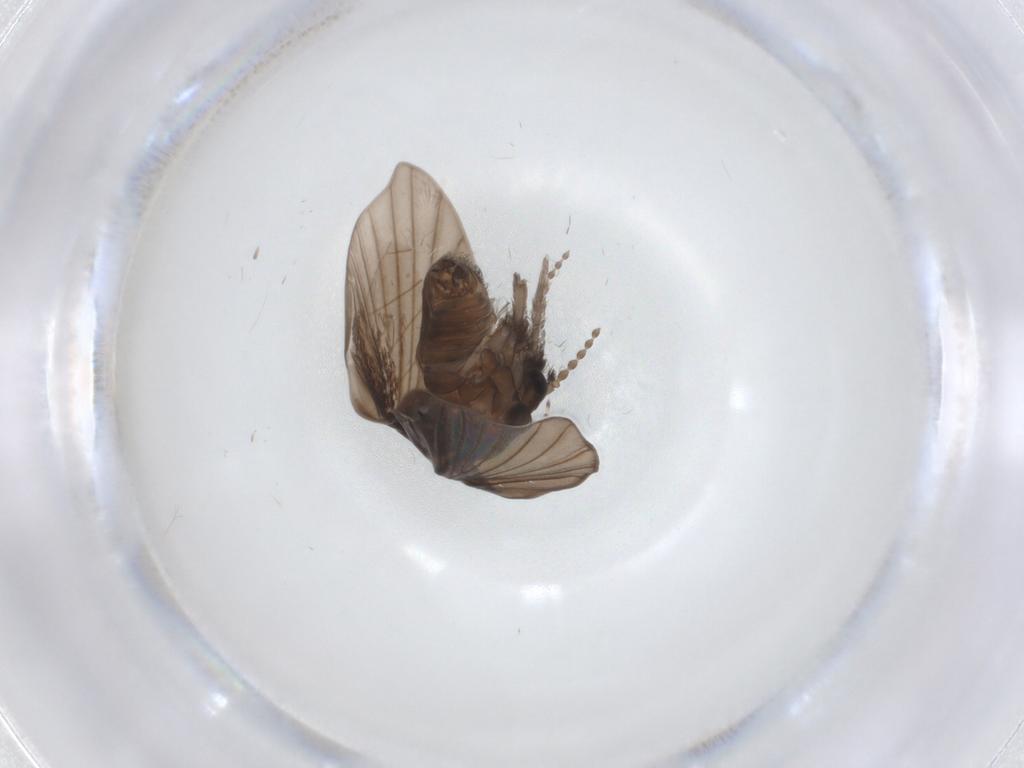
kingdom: Animalia
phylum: Arthropoda
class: Insecta
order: Diptera
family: Psychodidae
